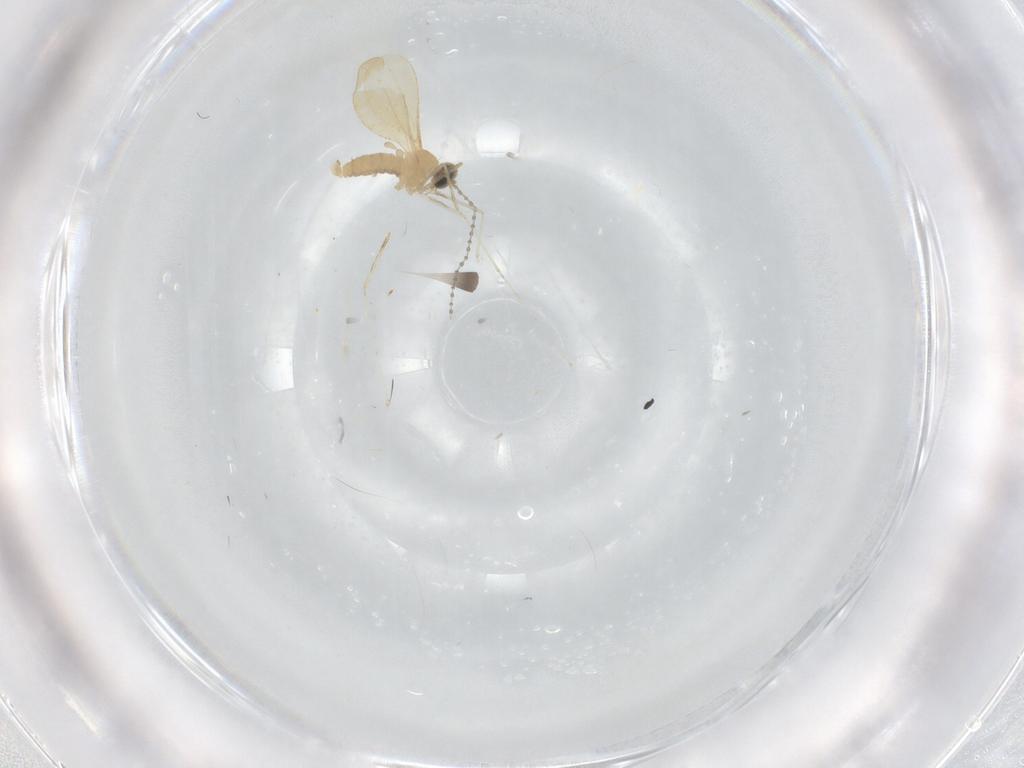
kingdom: Animalia
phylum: Arthropoda
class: Insecta
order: Diptera
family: Cecidomyiidae
